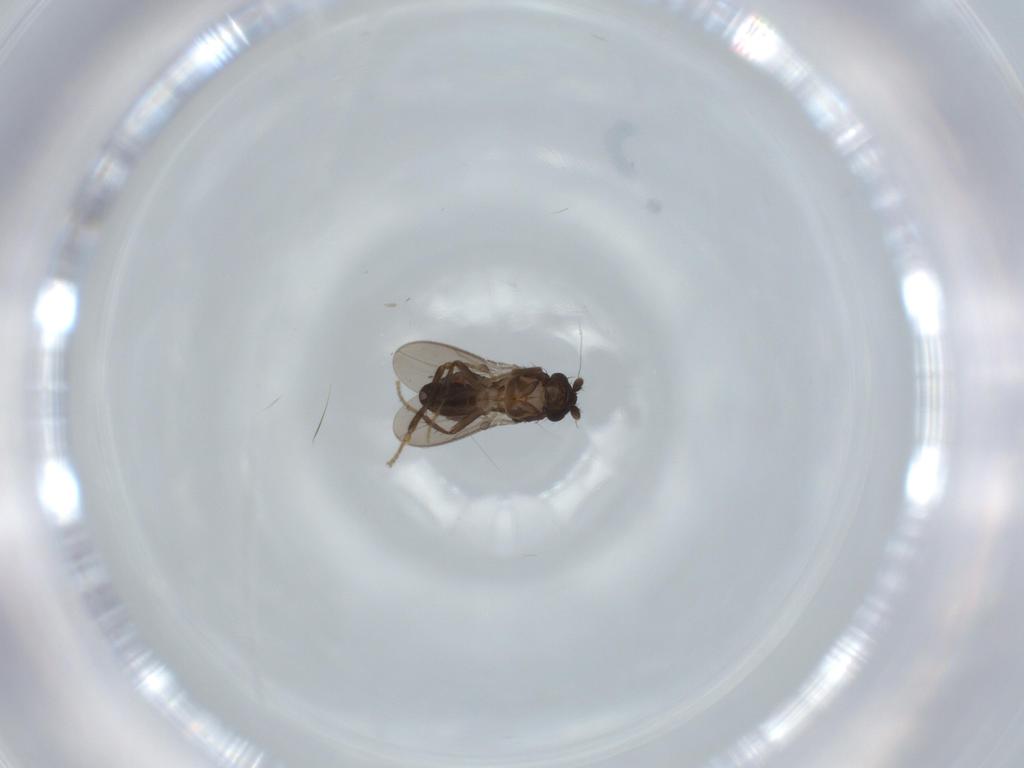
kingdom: Animalia
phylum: Arthropoda
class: Insecta
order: Diptera
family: Sphaeroceridae
